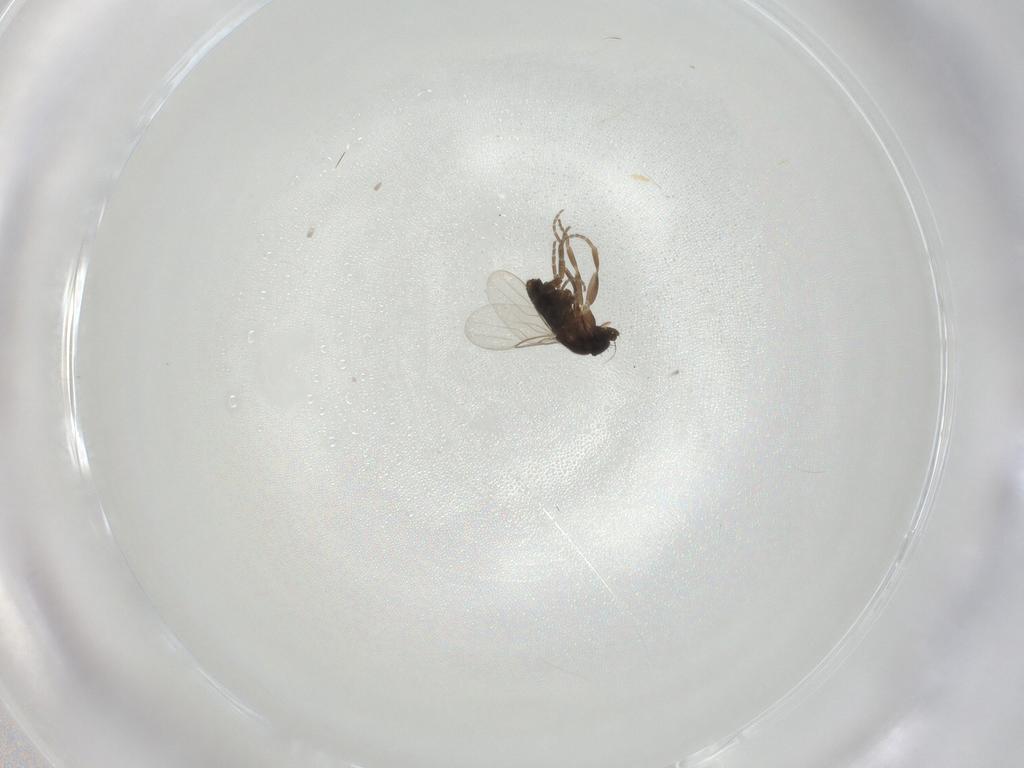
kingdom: Animalia
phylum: Arthropoda
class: Insecta
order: Diptera
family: Phoridae
